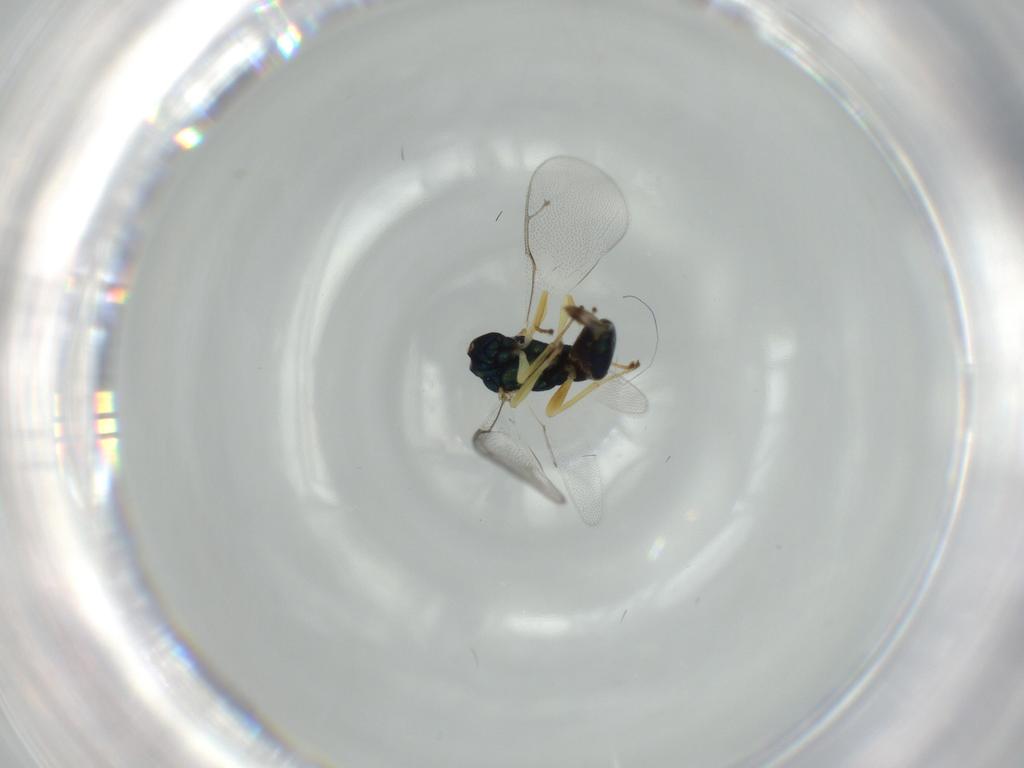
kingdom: Animalia
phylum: Arthropoda
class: Insecta
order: Hymenoptera
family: Pteromalidae
